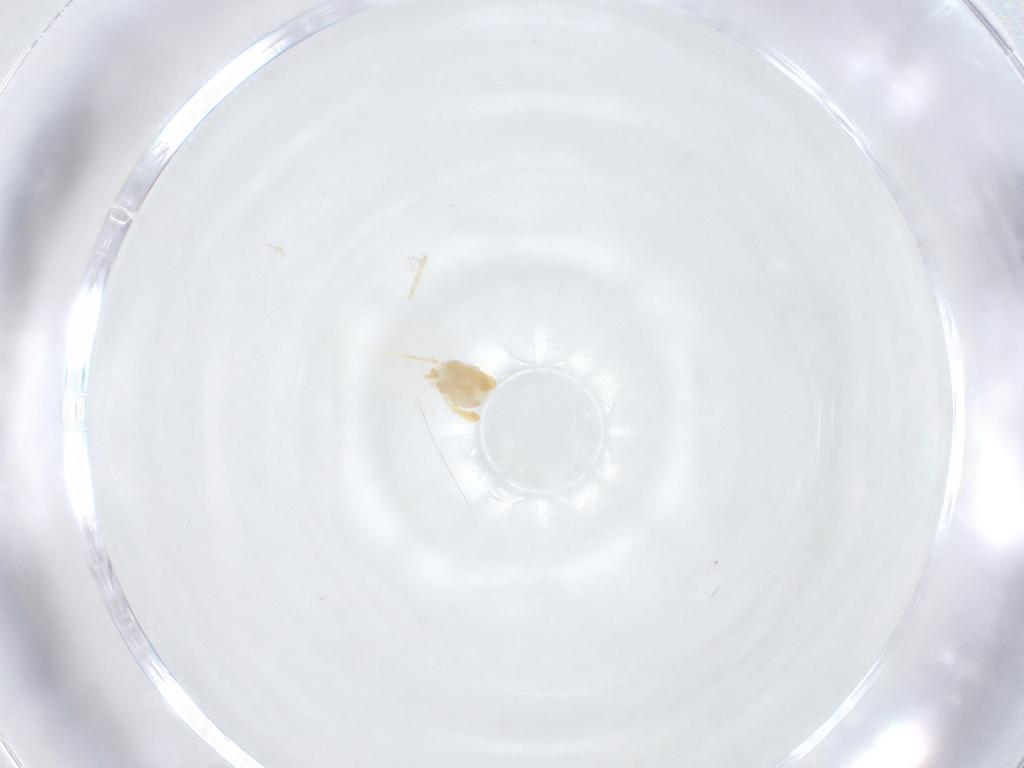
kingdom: Animalia
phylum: Arthropoda
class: Arachnida
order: Trombidiformes
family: Eupodidae
